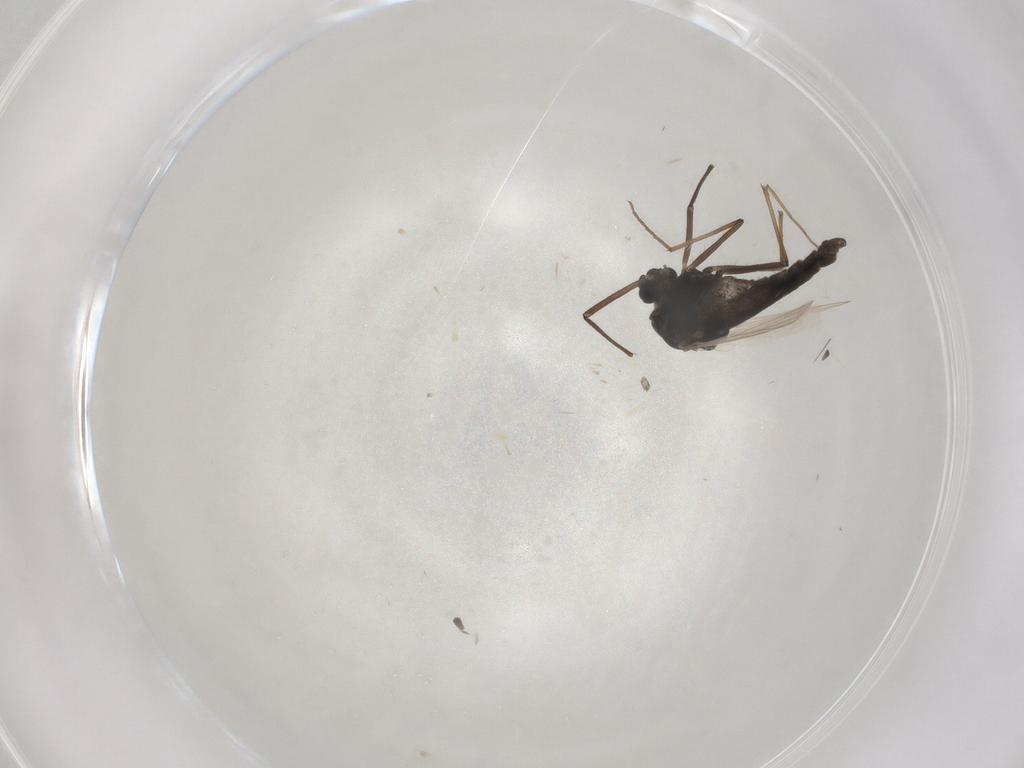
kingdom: Animalia
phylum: Arthropoda
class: Insecta
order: Diptera
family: Chironomidae
